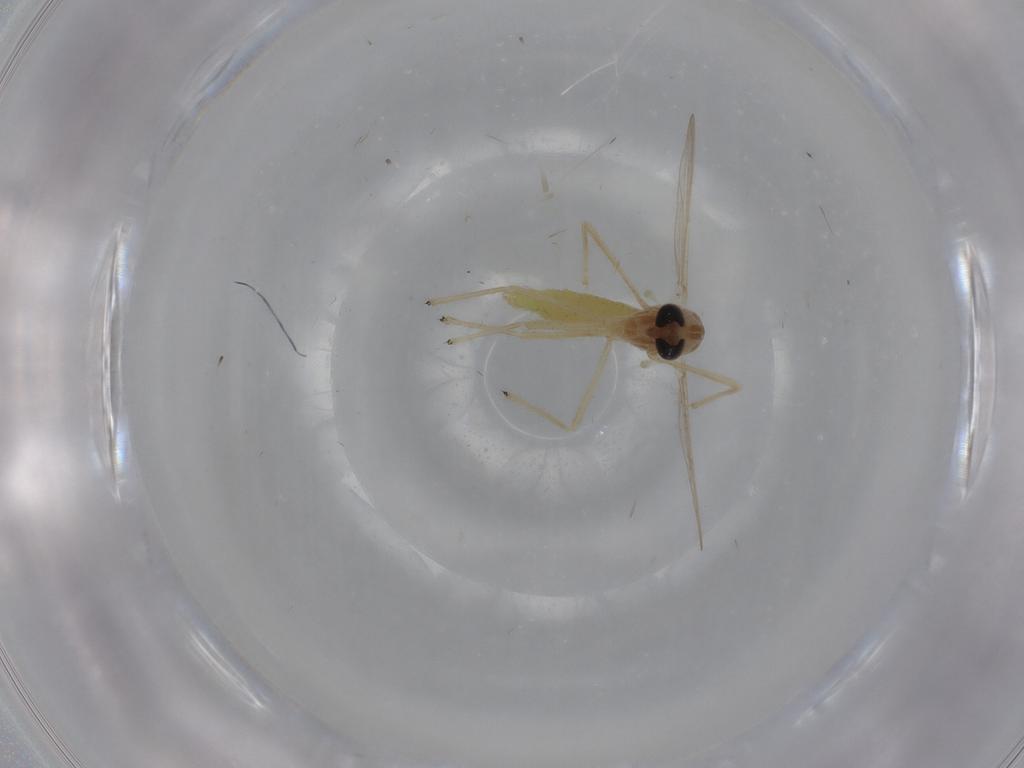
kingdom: Animalia
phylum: Arthropoda
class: Insecta
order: Diptera
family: Chironomidae
